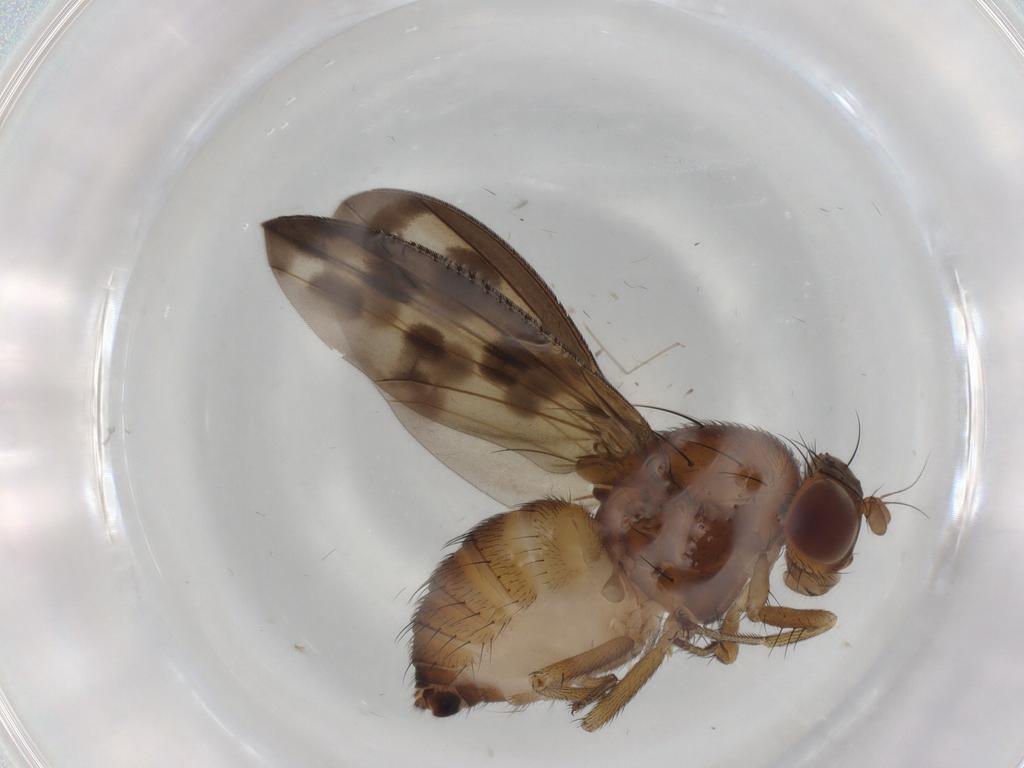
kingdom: Animalia
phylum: Arthropoda
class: Insecta
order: Diptera
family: Chironomidae
